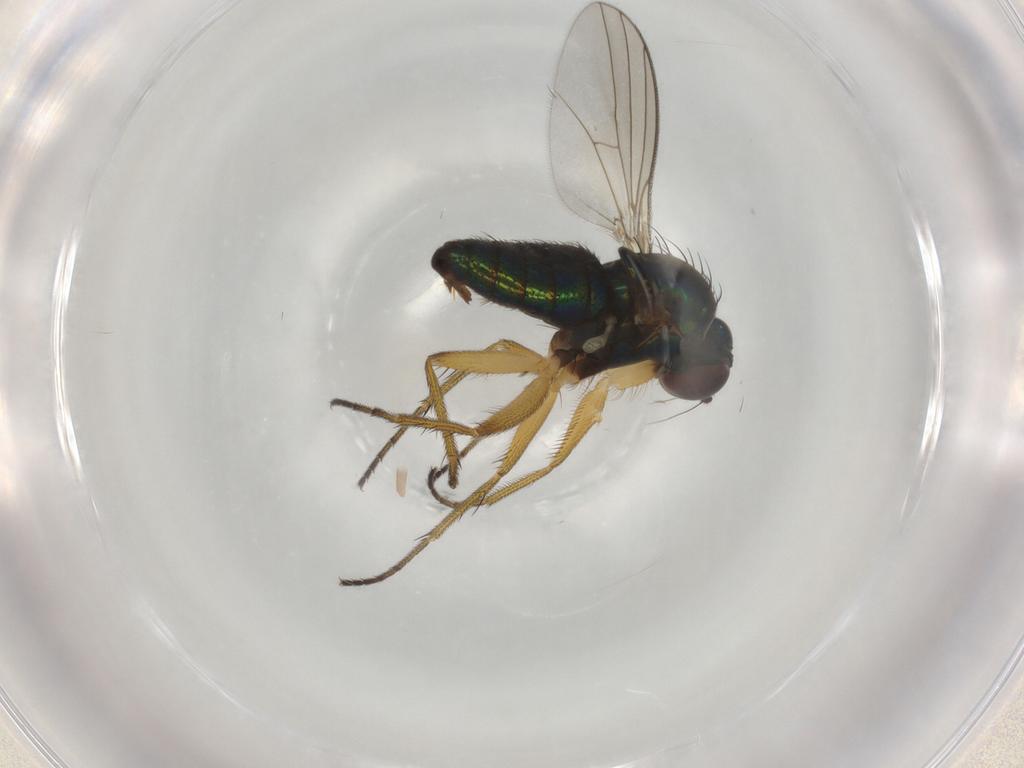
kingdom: Animalia
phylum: Arthropoda
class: Insecta
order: Diptera
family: Dolichopodidae
